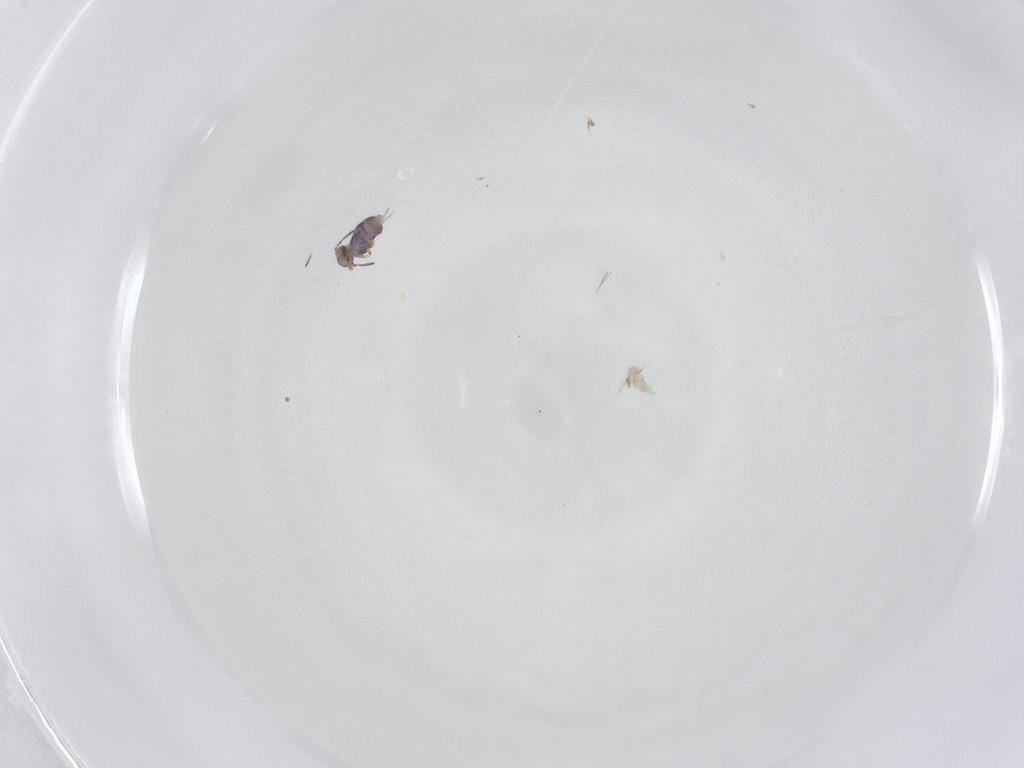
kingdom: Animalia
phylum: Arthropoda
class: Collembola
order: Symphypleona
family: Sminthuridae
